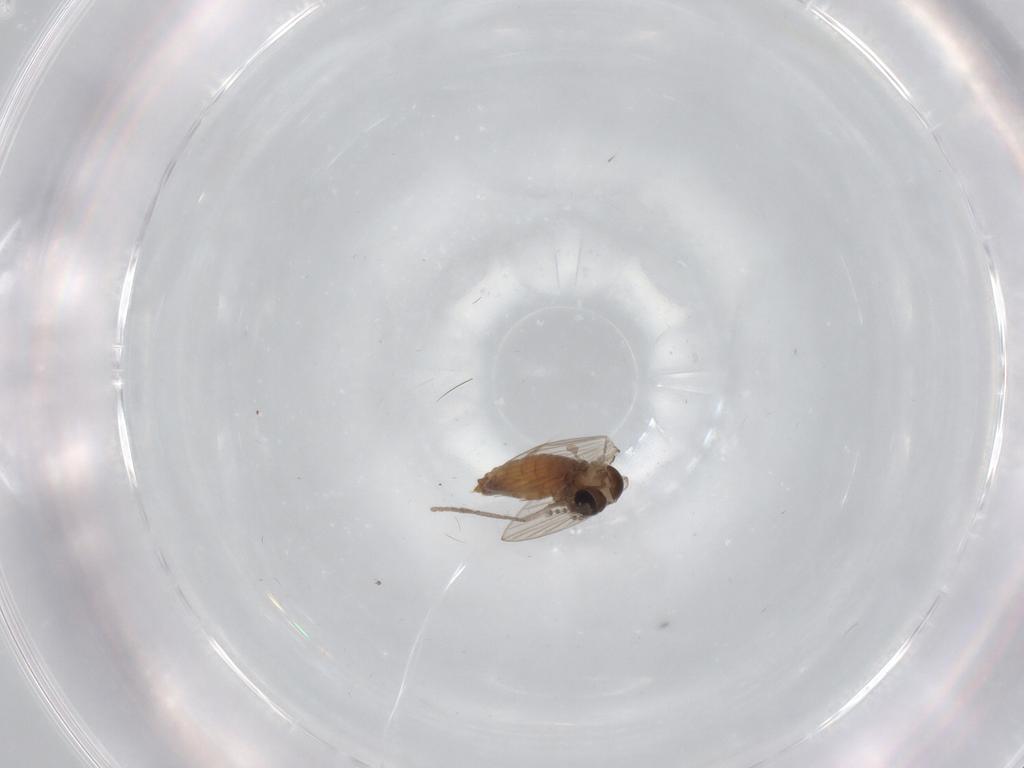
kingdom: Animalia
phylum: Arthropoda
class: Insecta
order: Diptera
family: Psychodidae
